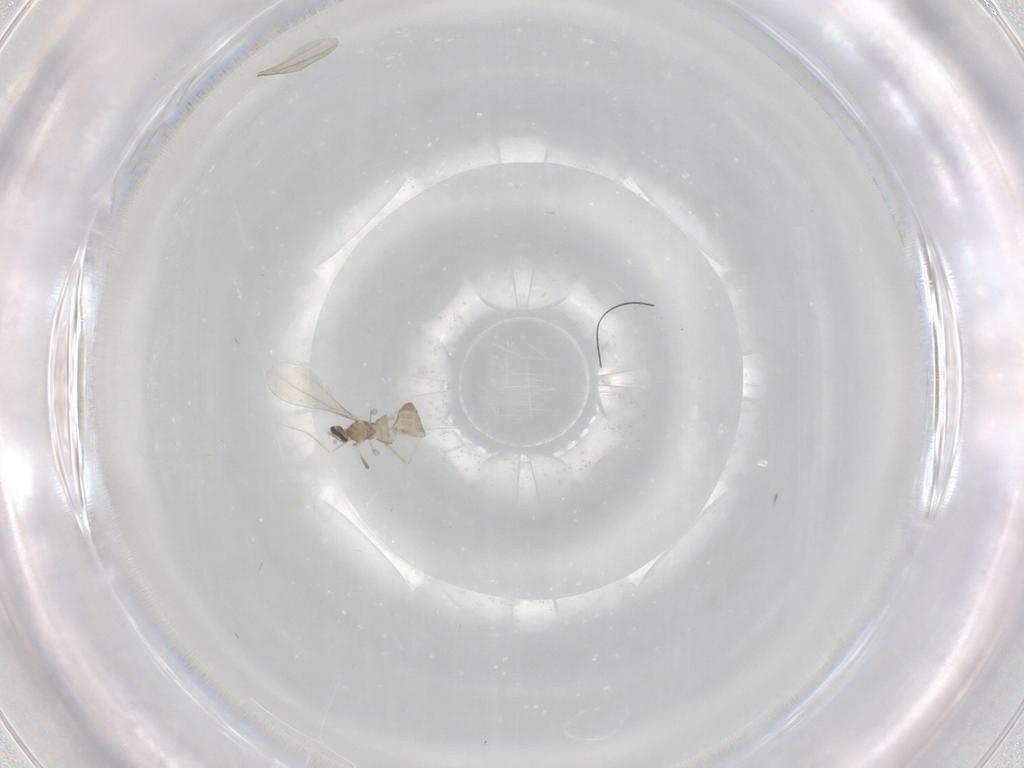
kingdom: Animalia
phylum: Arthropoda
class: Insecta
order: Diptera
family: Cecidomyiidae
